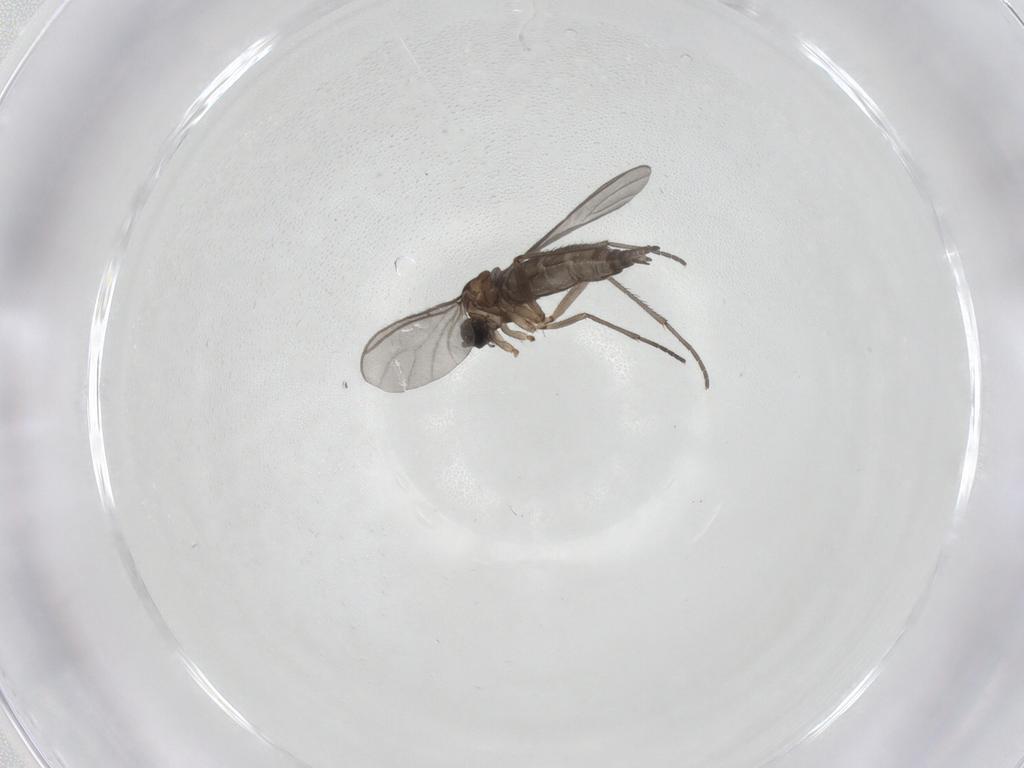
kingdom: Animalia
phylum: Arthropoda
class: Insecta
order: Diptera
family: Sciaridae
